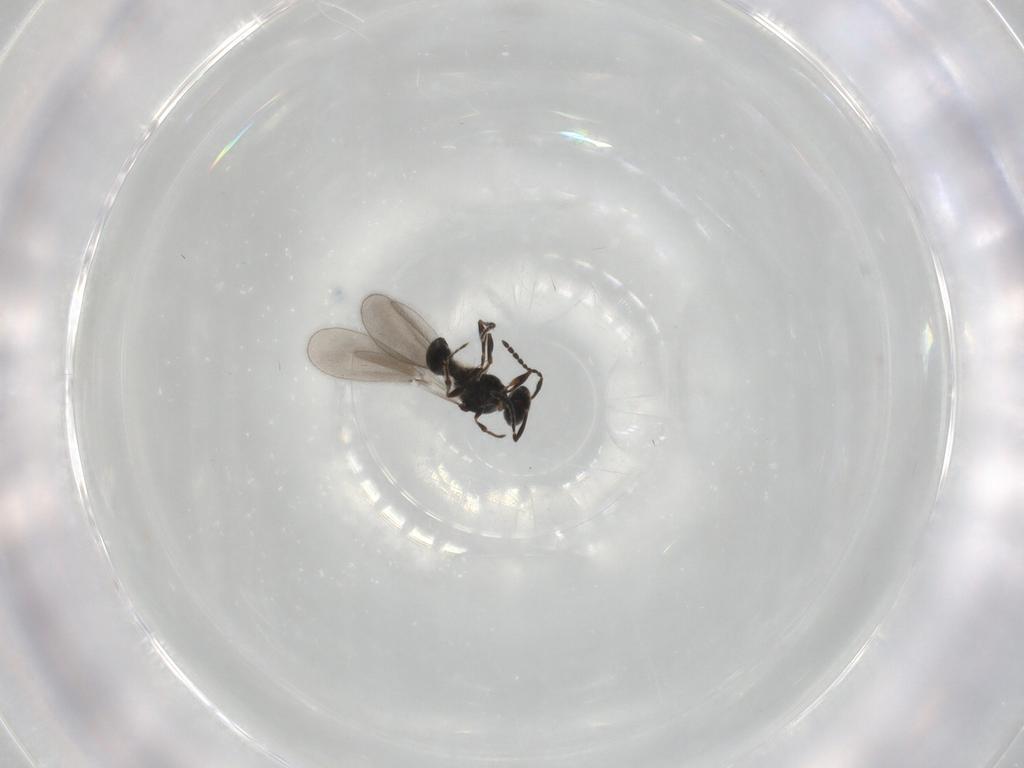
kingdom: Animalia
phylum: Arthropoda
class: Insecta
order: Hymenoptera
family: Platygastridae
